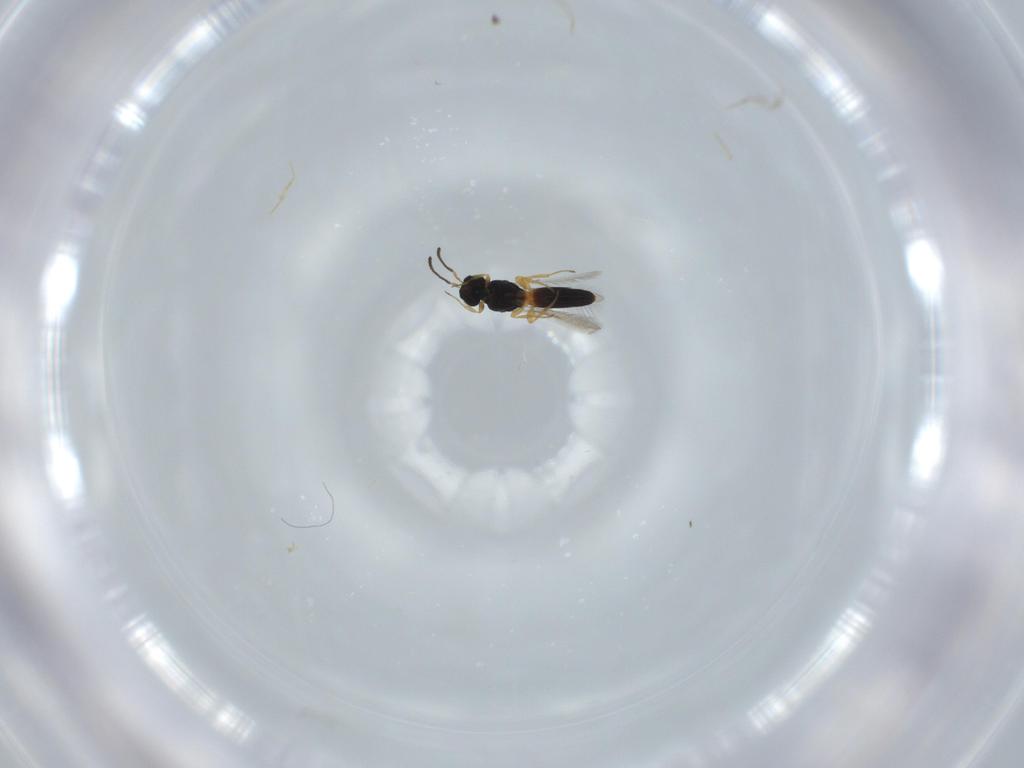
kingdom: Animalia
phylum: Arthropoda
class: Insecta
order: Hymenoptera
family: Scelionidae
